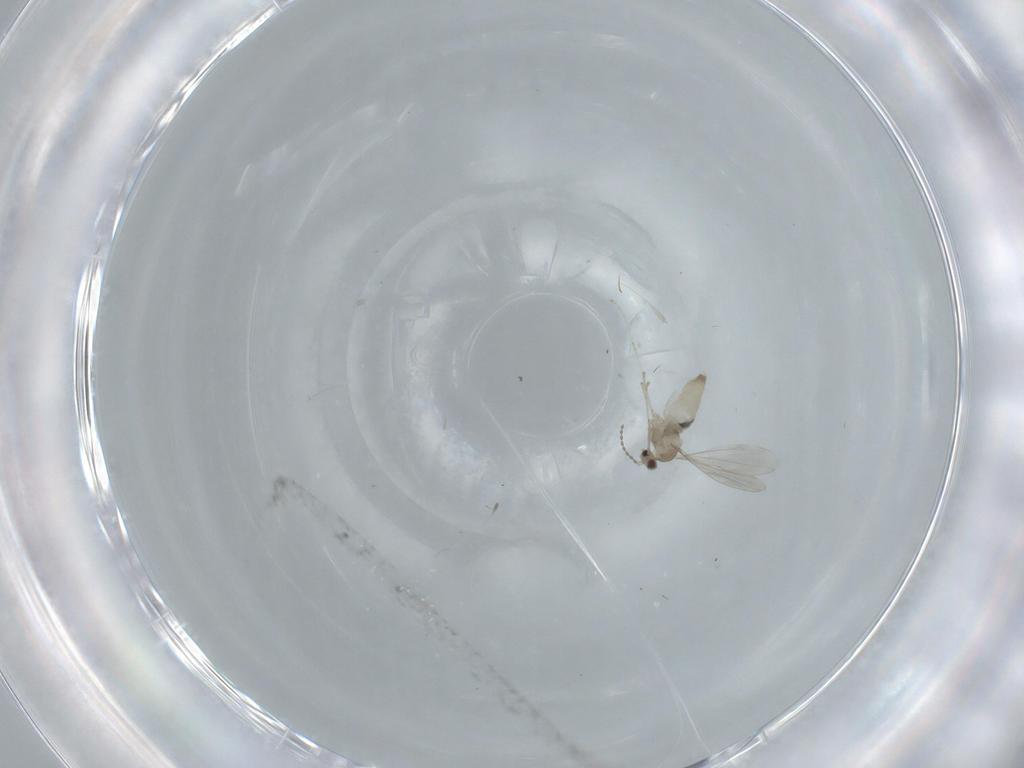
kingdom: Animalia
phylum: Arthropoda
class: Insecta
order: Diptera
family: Cecidomyiidae
